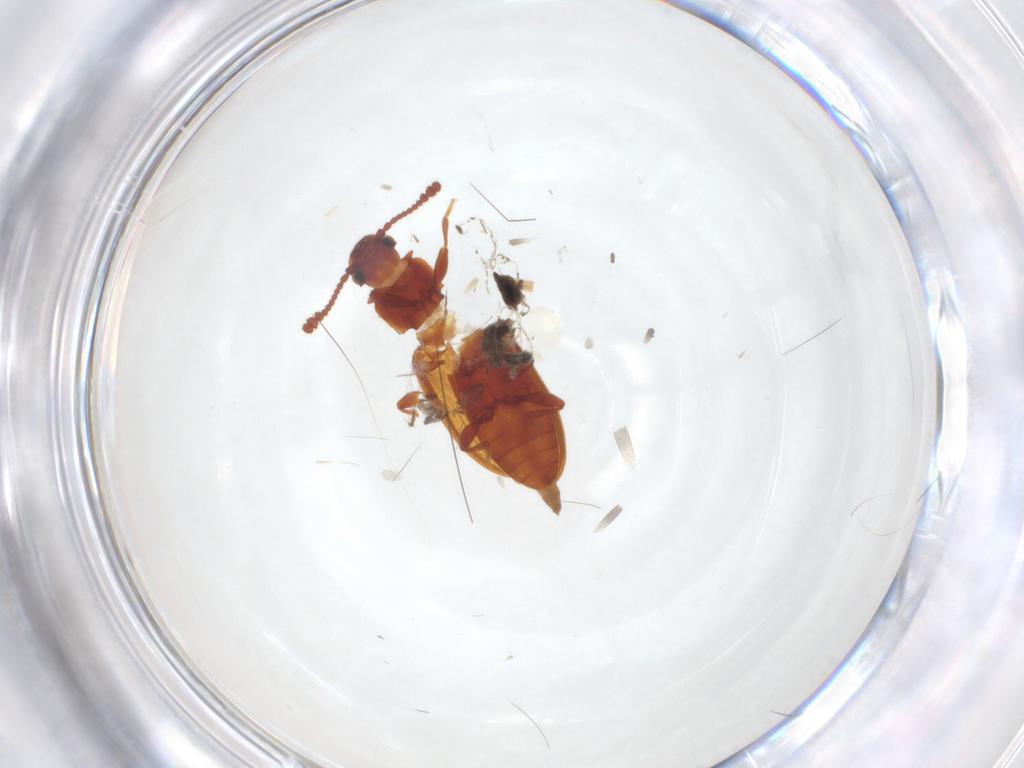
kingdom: Animalia
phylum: Arthropoda
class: Insecta
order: Coleoptera
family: Silvanidae
